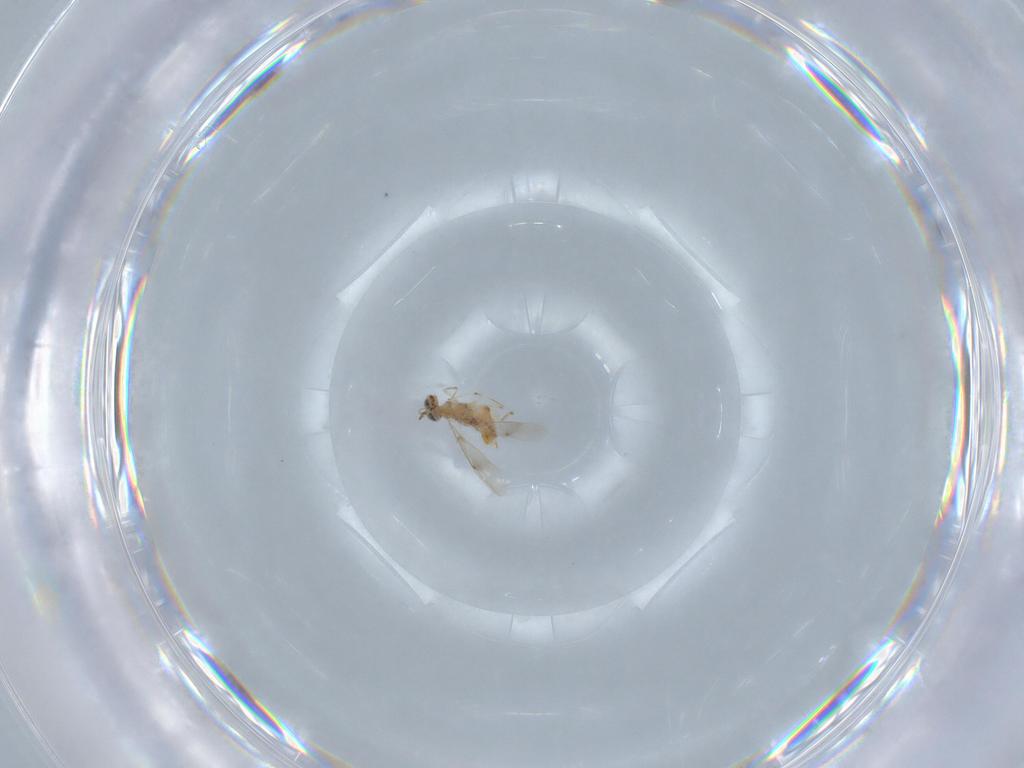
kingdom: Animalia
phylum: Arthropoda
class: Insecta
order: Hymenoptera
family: Aphelinidae
